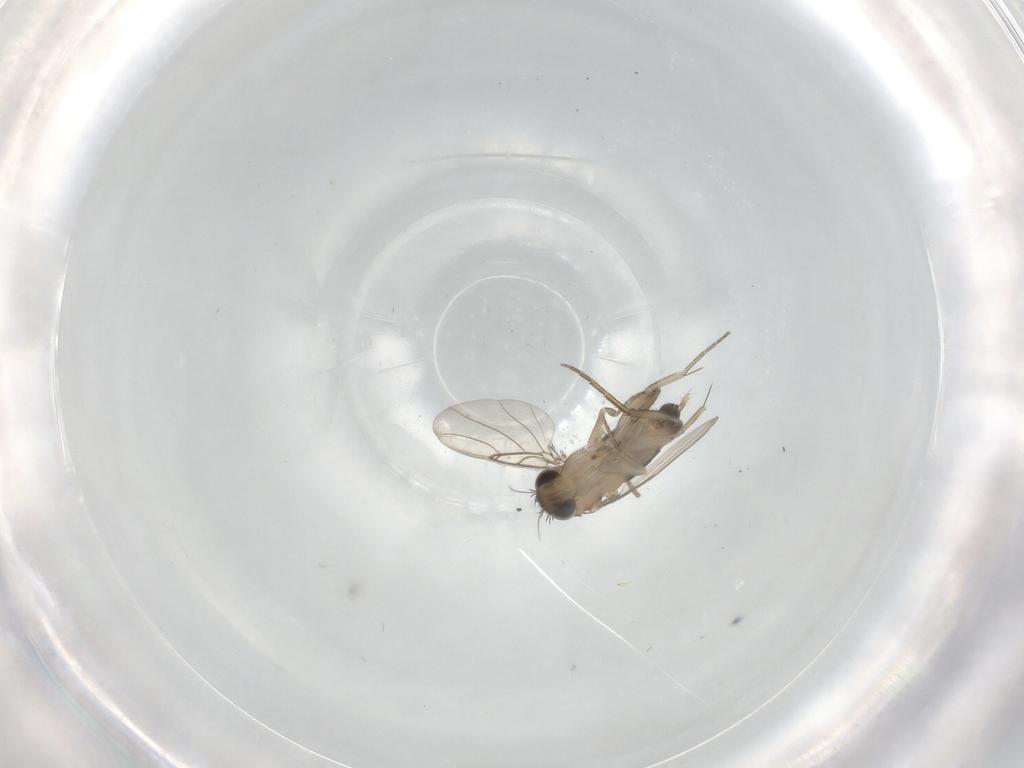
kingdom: Animalia
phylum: Arthropoda
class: Insecta
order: Diptera
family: Phoridae
